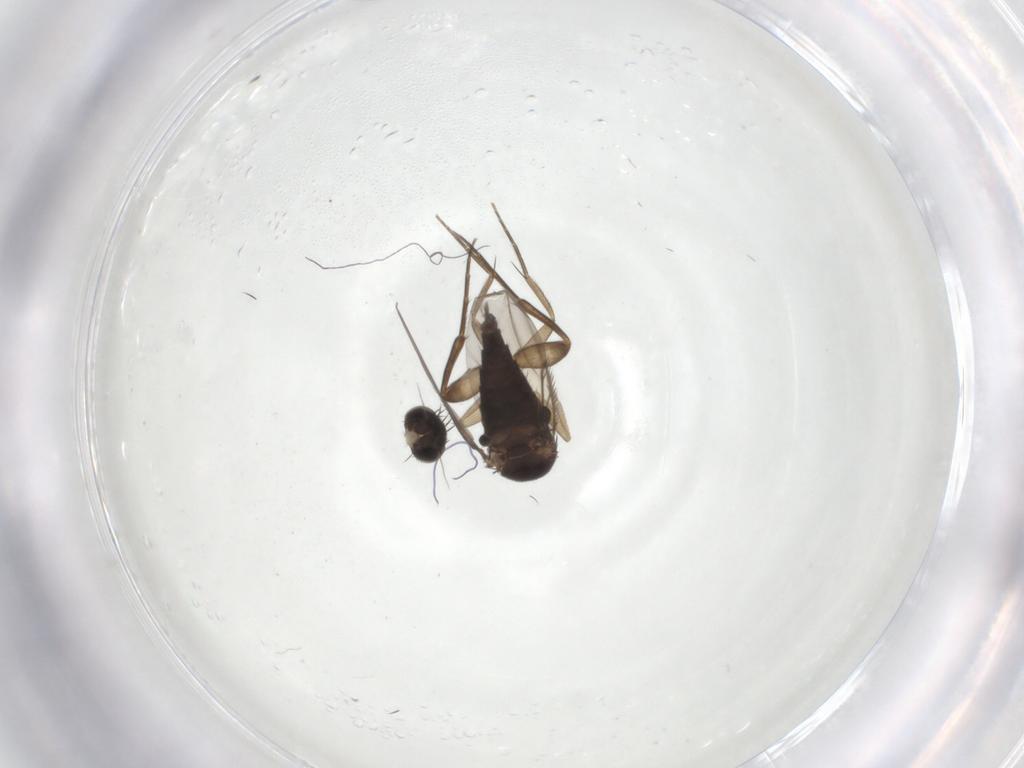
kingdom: Animalia
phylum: Arthropoda
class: Insecta
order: Diptera
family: Phoridae
